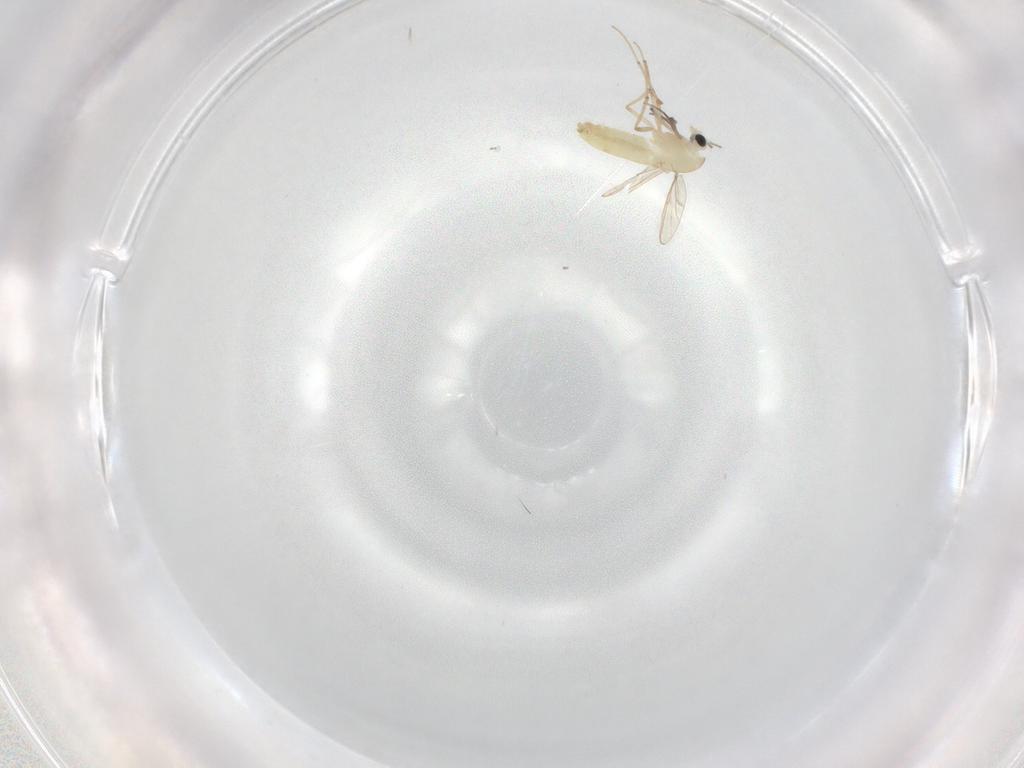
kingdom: Animalia
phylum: Arthropoda
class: Insecta
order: Diptera
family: Chironomidae
